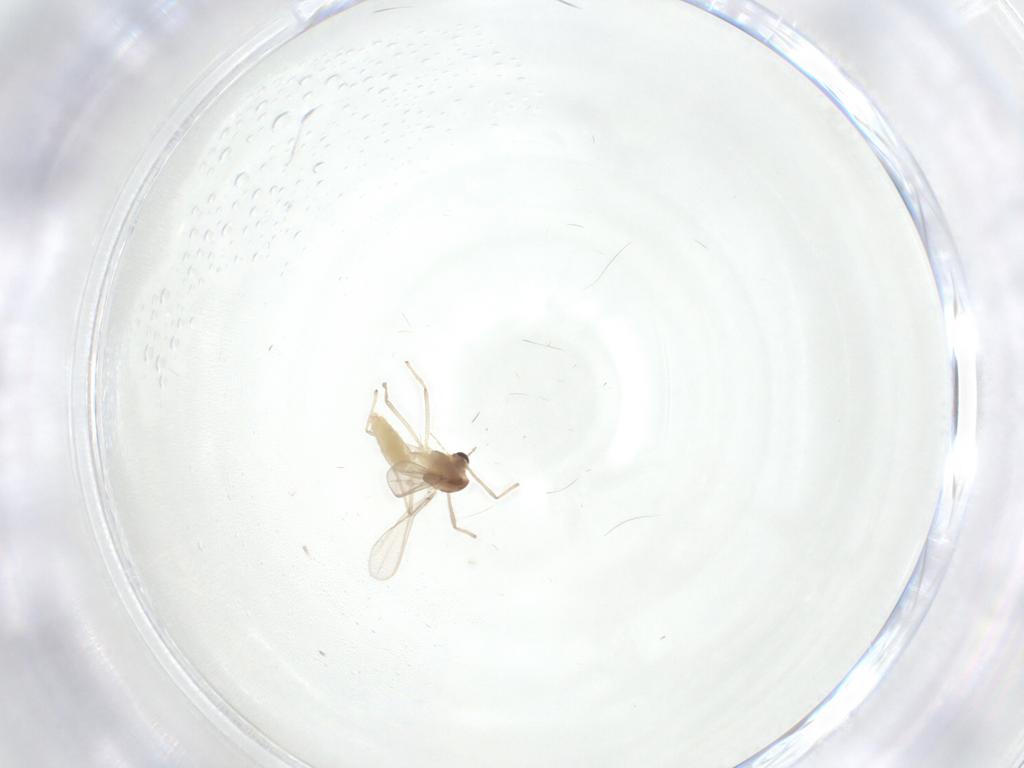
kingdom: Animalia
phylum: Arthropoda
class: Insecta
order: Diptera
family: Chironomidae
